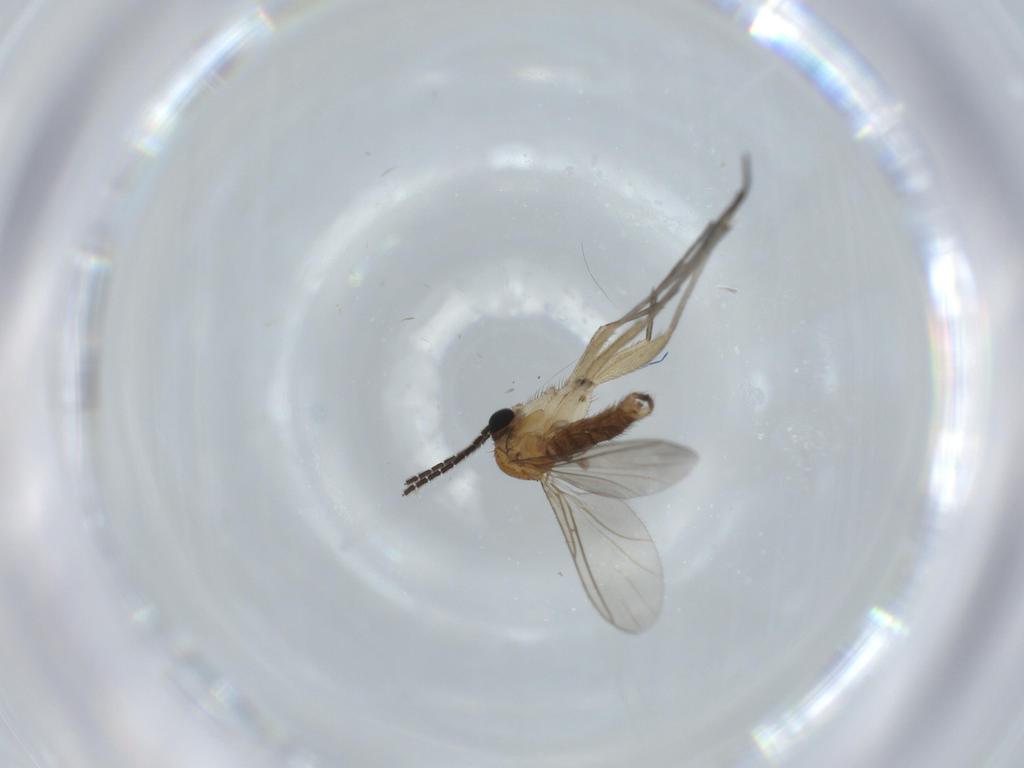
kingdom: Animalia
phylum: Arthropoda
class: Insecta
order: Diptera
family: Sciaridae
